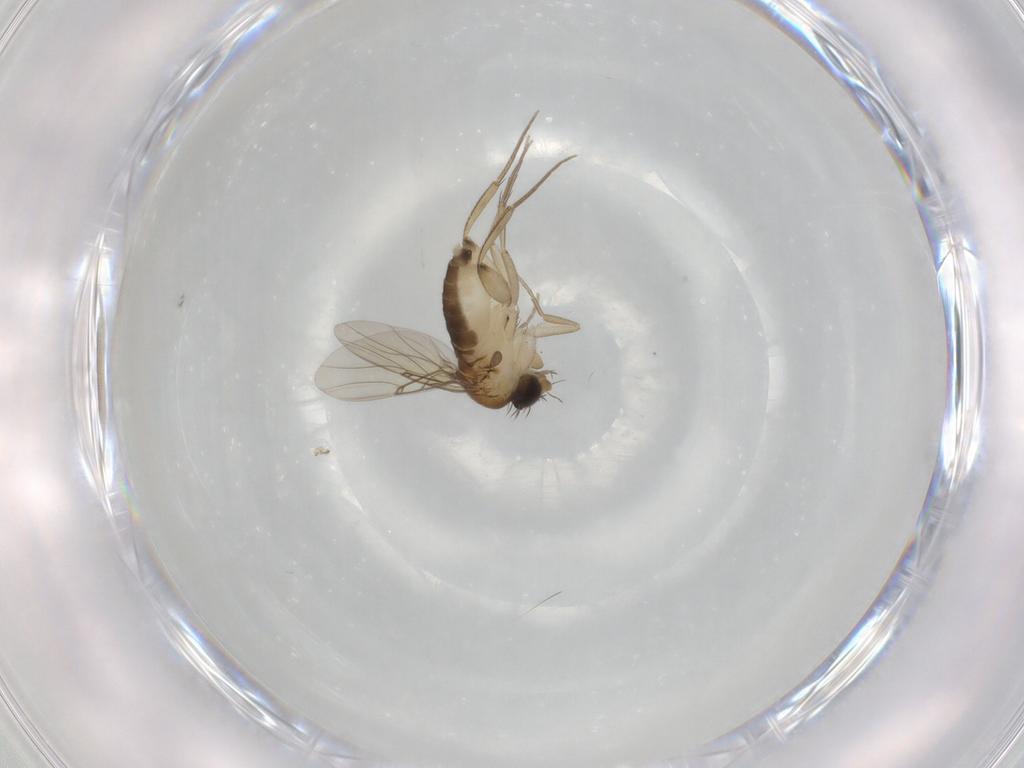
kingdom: Animalia
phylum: Arthropoda
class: Insecta
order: Diptera
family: Phoridae
